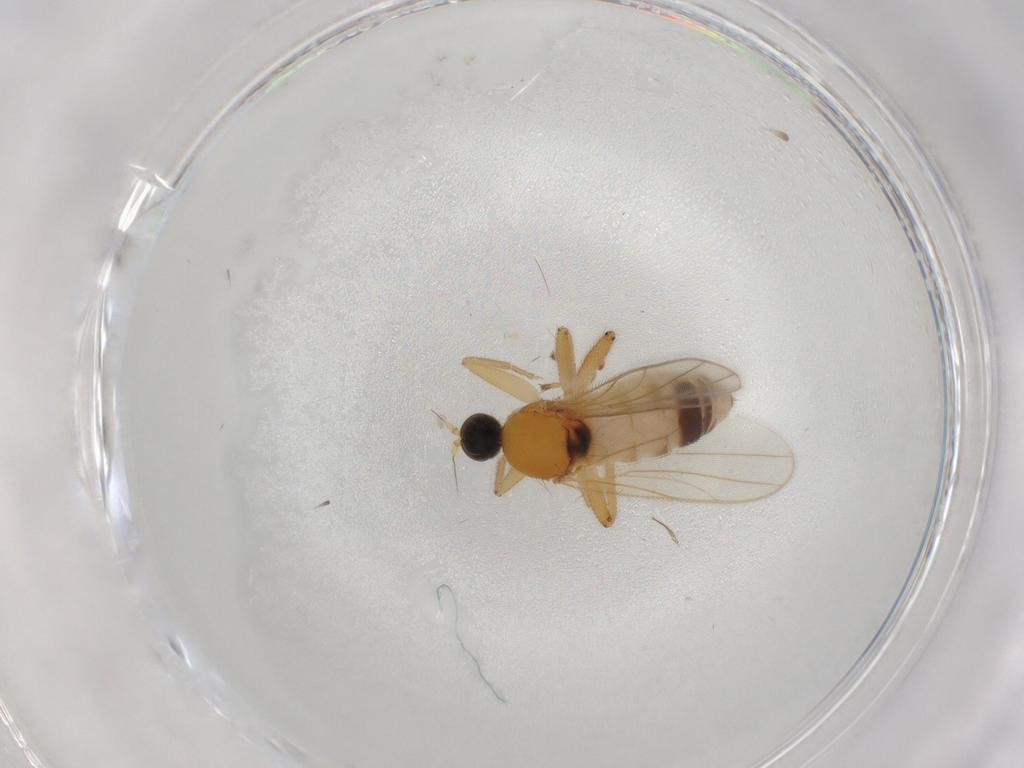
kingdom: Animalia
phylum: Arthropoda
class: Insecta
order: Diptera
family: Hybotidae
